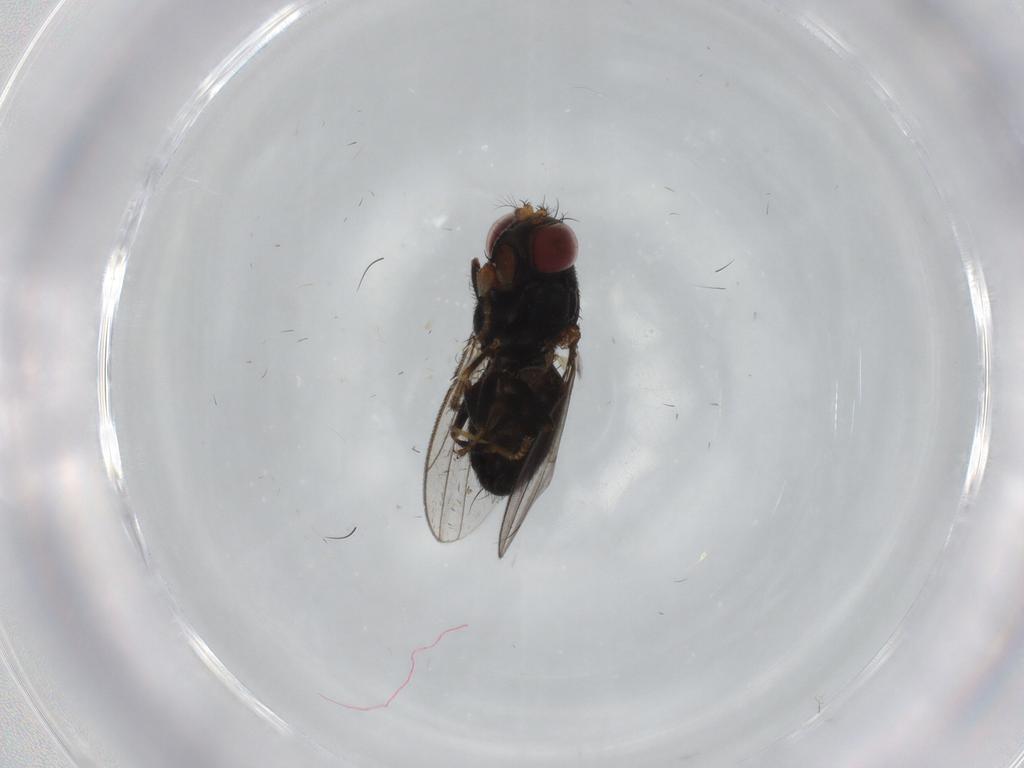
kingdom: Animalia
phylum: Arthropoda
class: Insecta
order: Diptera
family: Ephydridae
